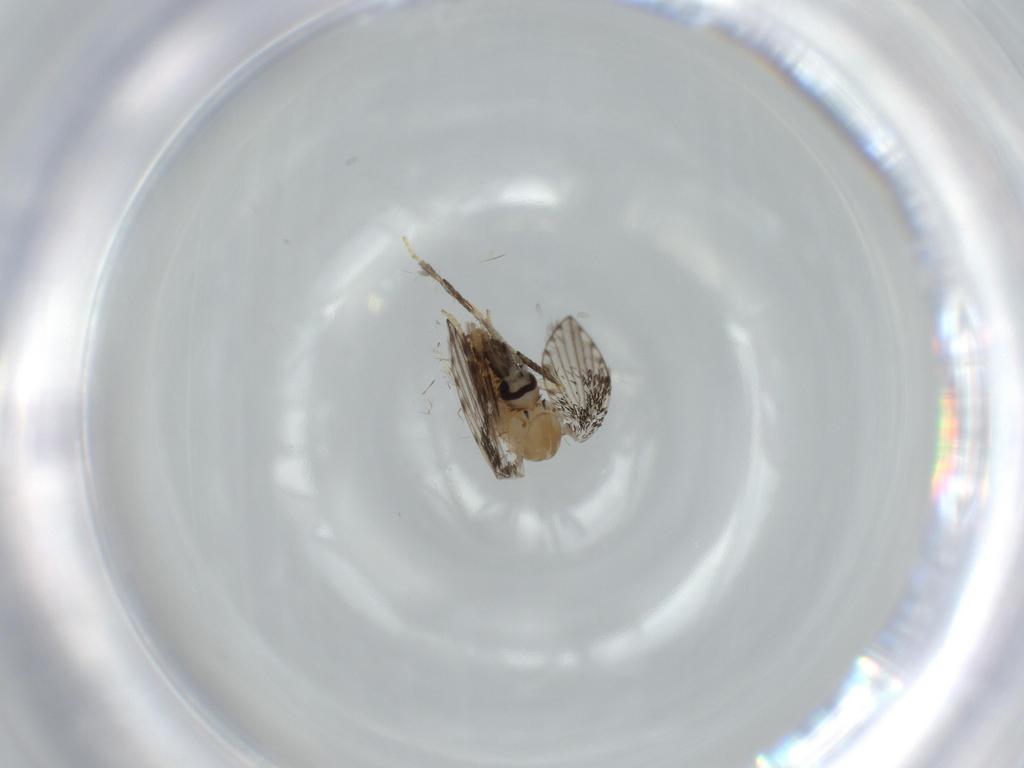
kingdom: Animalia
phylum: Arthropoda
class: Insecta
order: Diptera
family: Psychodidae
